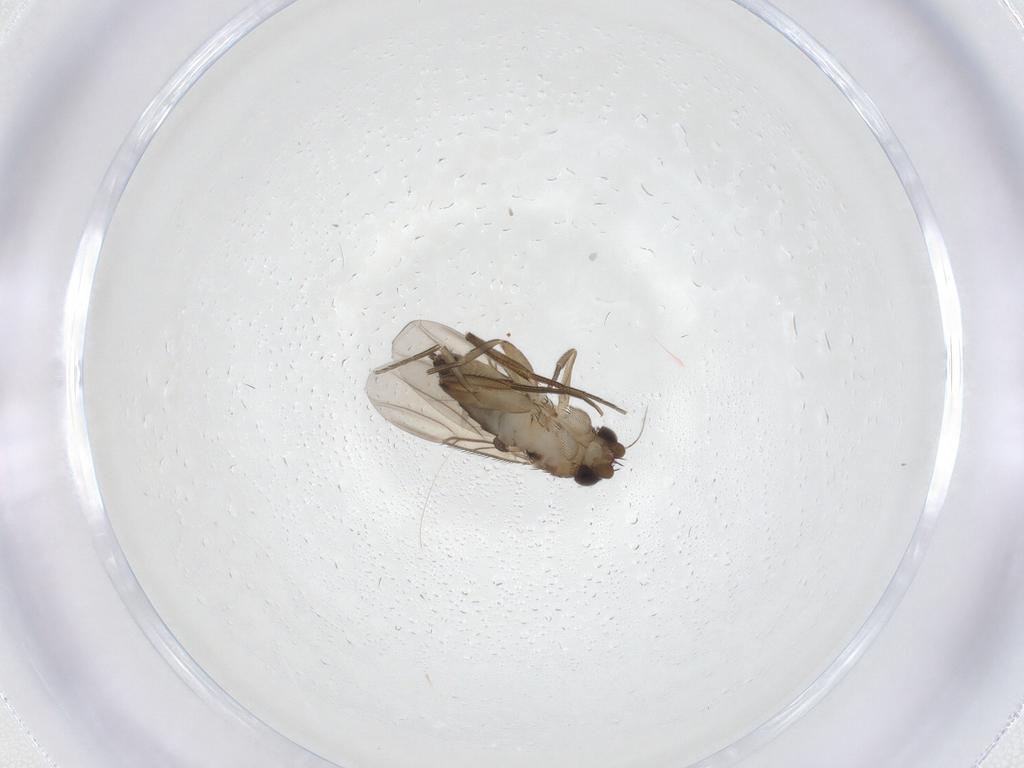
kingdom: Animalia
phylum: Arthropoda
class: Insecta
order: Diptera
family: Phoridae
